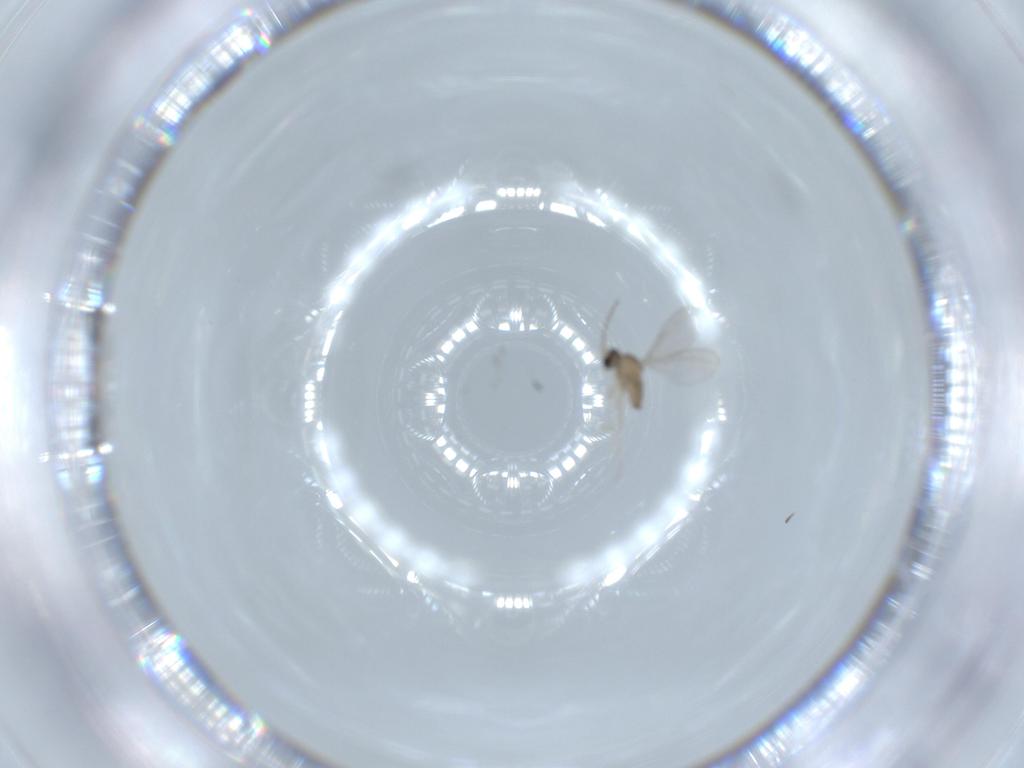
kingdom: Animalia
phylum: Arthropoda
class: Insecta
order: Diptera
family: Cecidomyiidae
